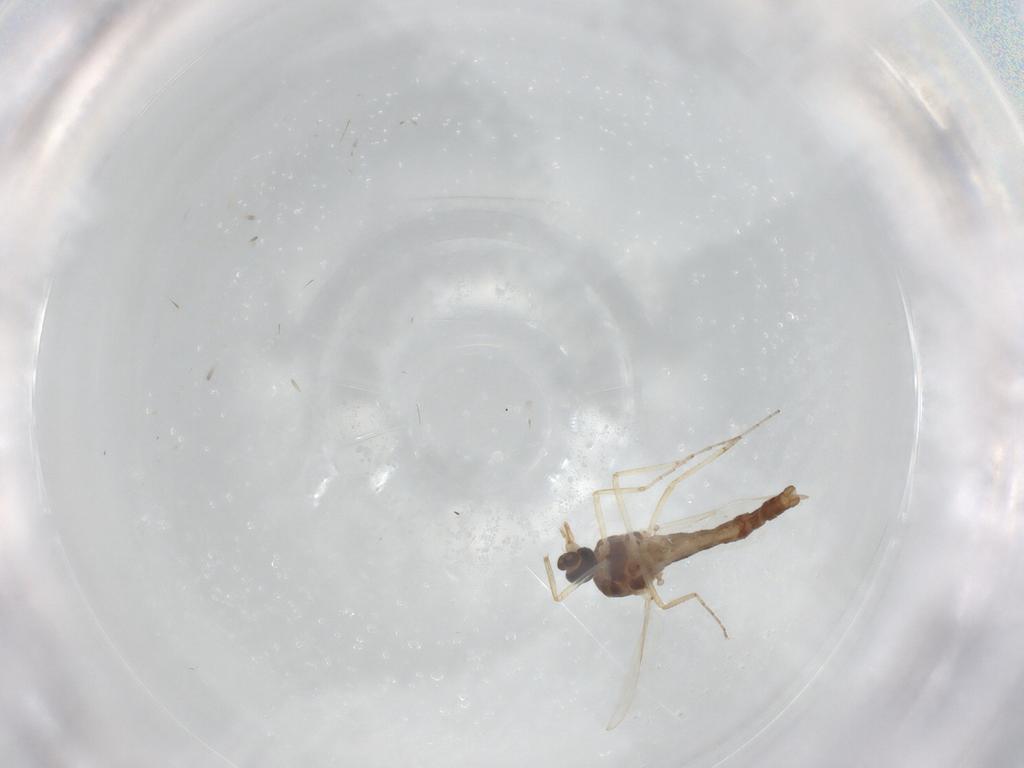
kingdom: Animalia
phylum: Arthropoda
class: Insecta
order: Diptera
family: Ceratopogonidae
